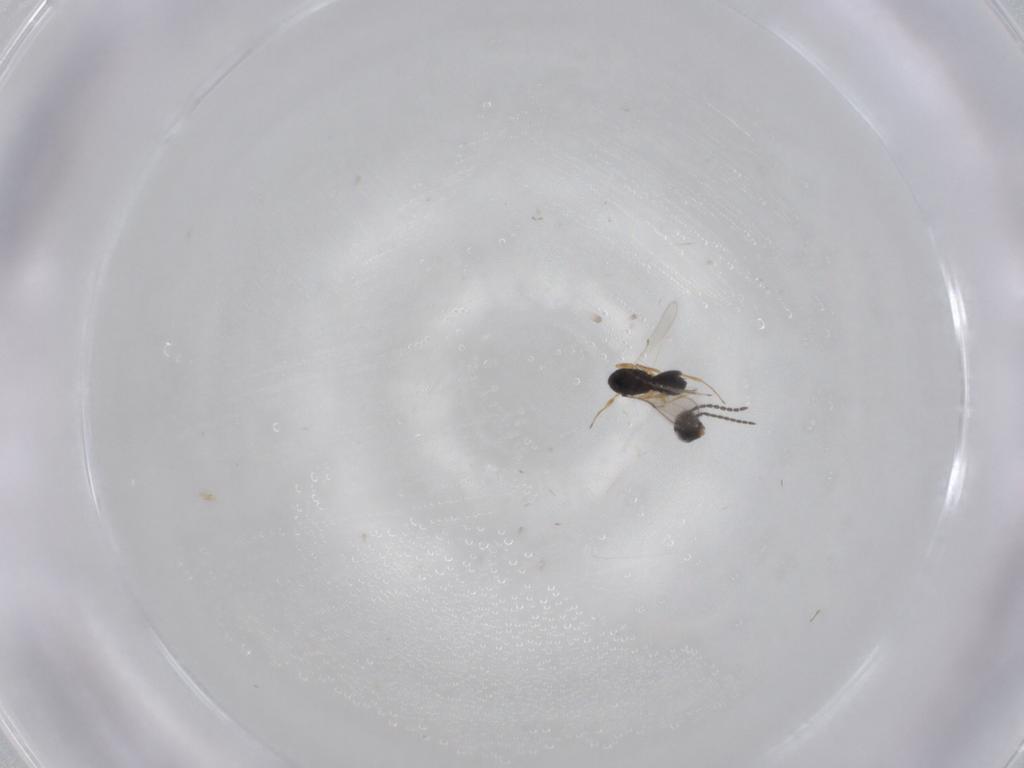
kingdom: Animalia
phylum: Arthropoda
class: Insecta
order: Hymenoptera
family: Scelionidae
